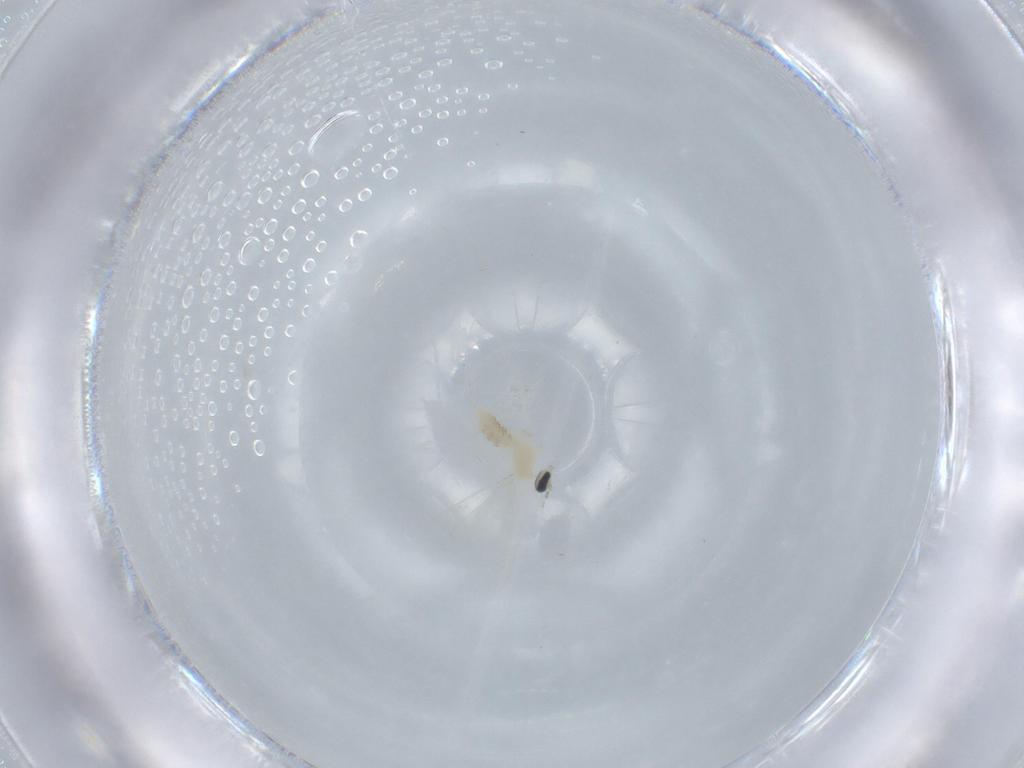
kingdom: Animalia
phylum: Arthropoda
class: Insecta
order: Diptera
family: Cecidomyiidae
